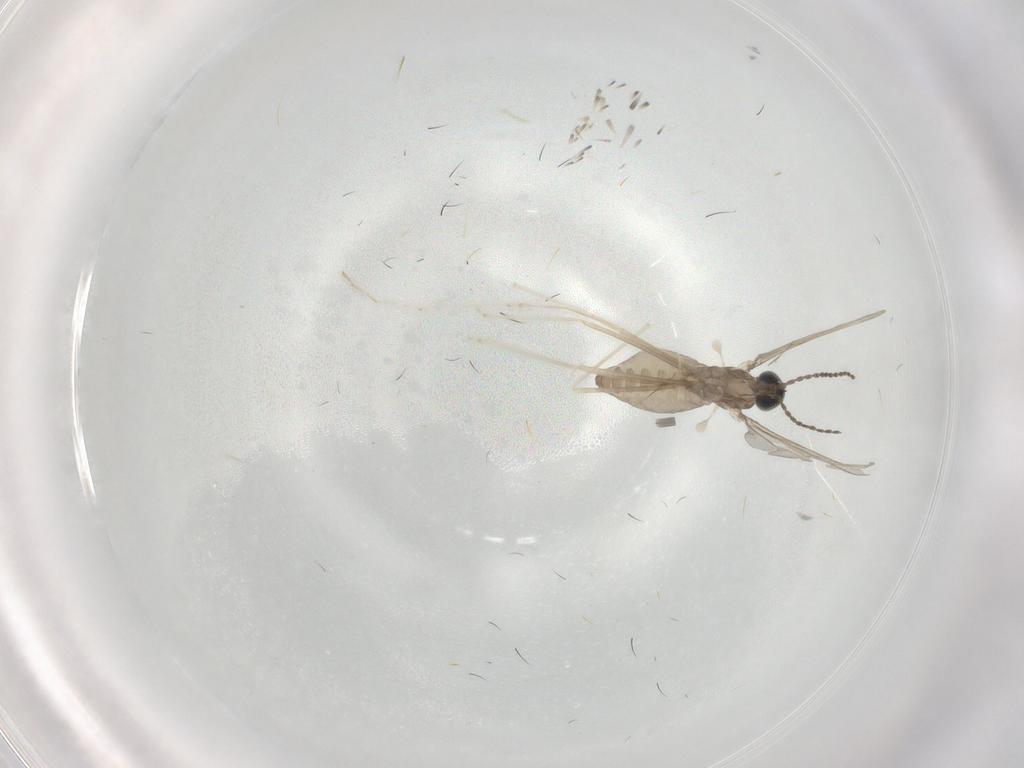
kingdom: Animalia
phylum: Arthropoda
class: Insecta
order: Diptera
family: Cecidomyiidae
